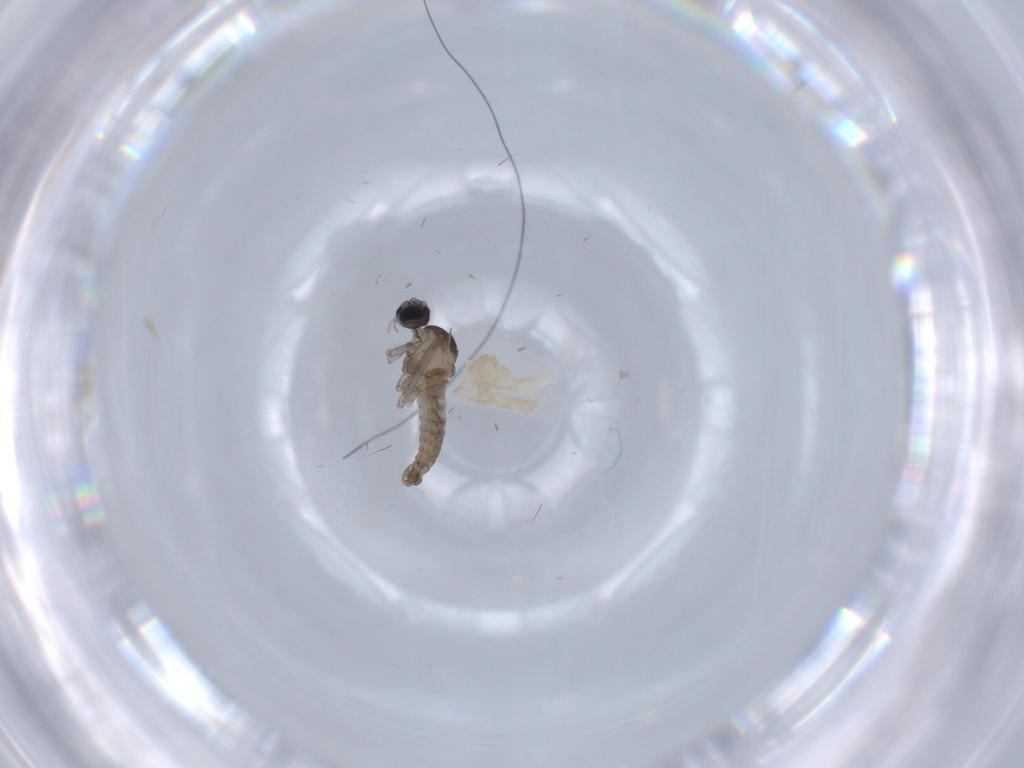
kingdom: Animalia
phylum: Arthropoda
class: Insecta
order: Diptera
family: Cecidomyiidae
